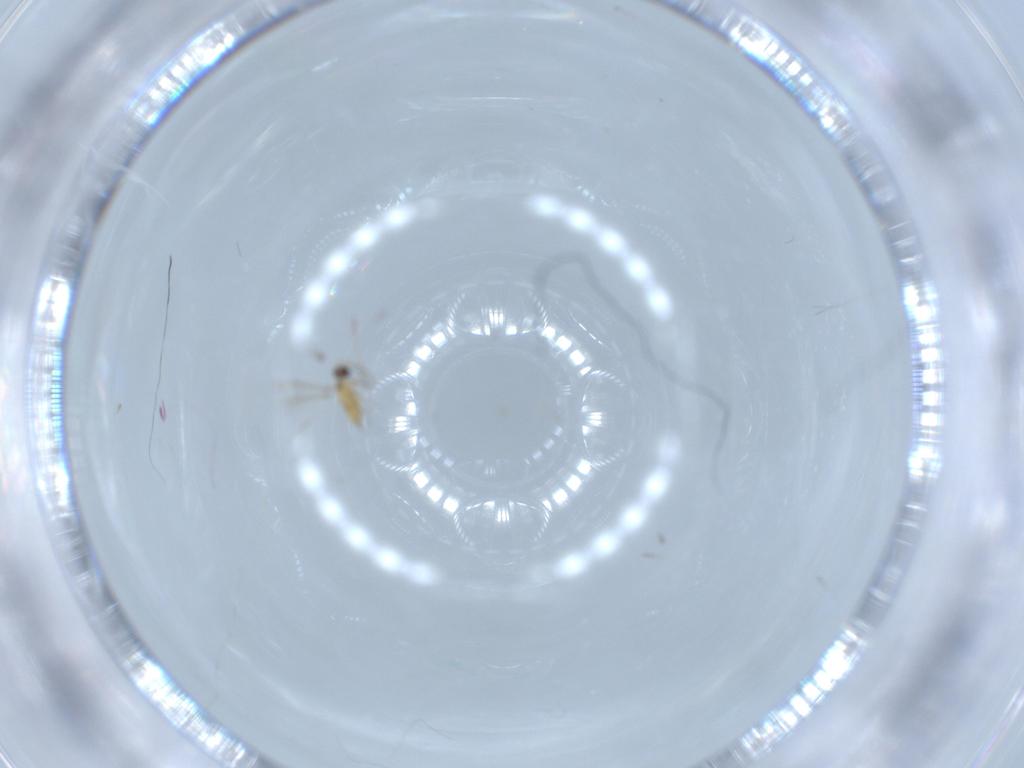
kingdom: Animalia
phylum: Arthropoda
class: Insecta
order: Hymenoptera
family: Mymaridae
